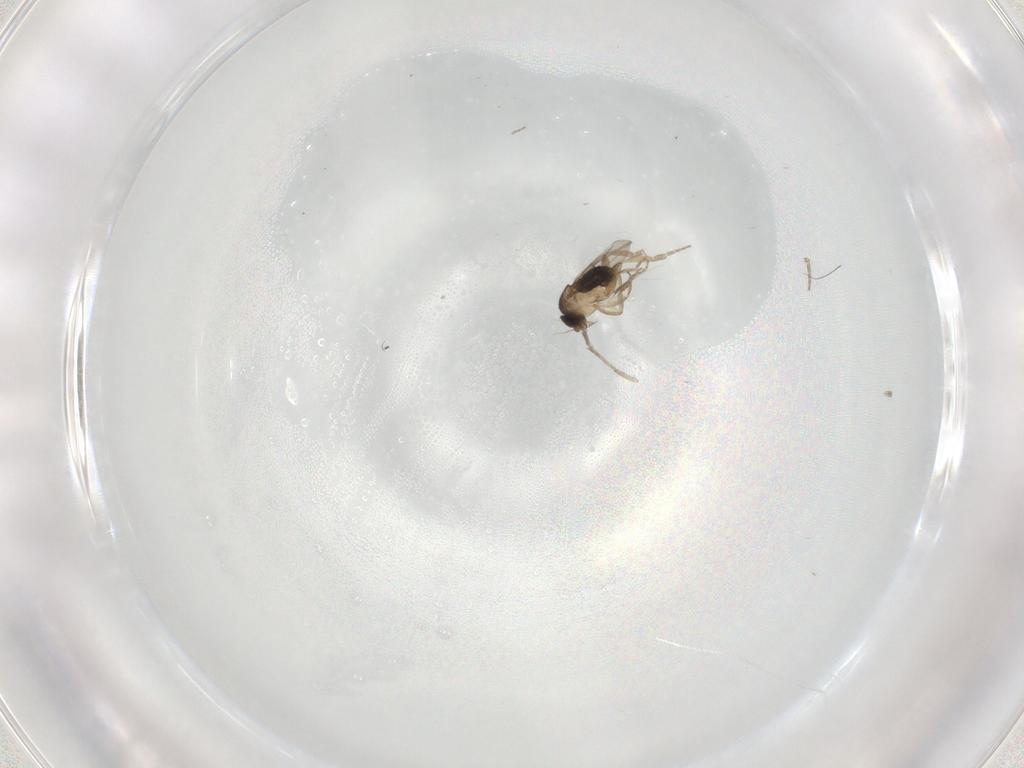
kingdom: Animalia
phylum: Arthropoda
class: Insecta
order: Diptera
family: Phoridae
